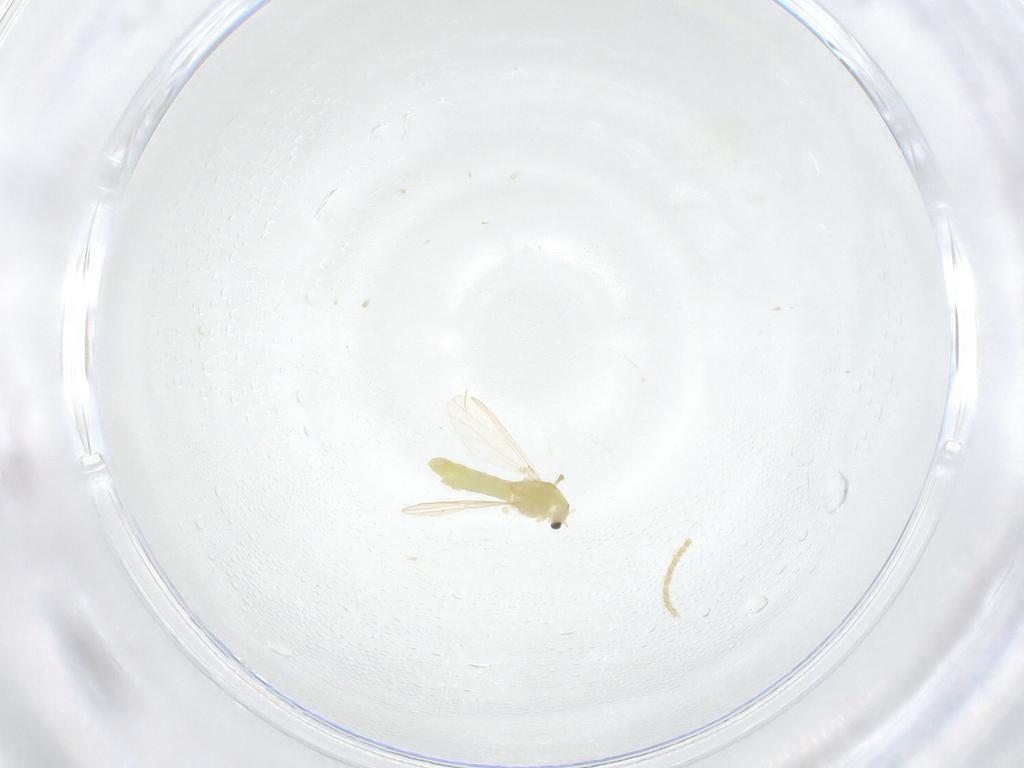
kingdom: Animalia
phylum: Arthropoda
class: Insecta
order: Diptera
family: Chironomidae
